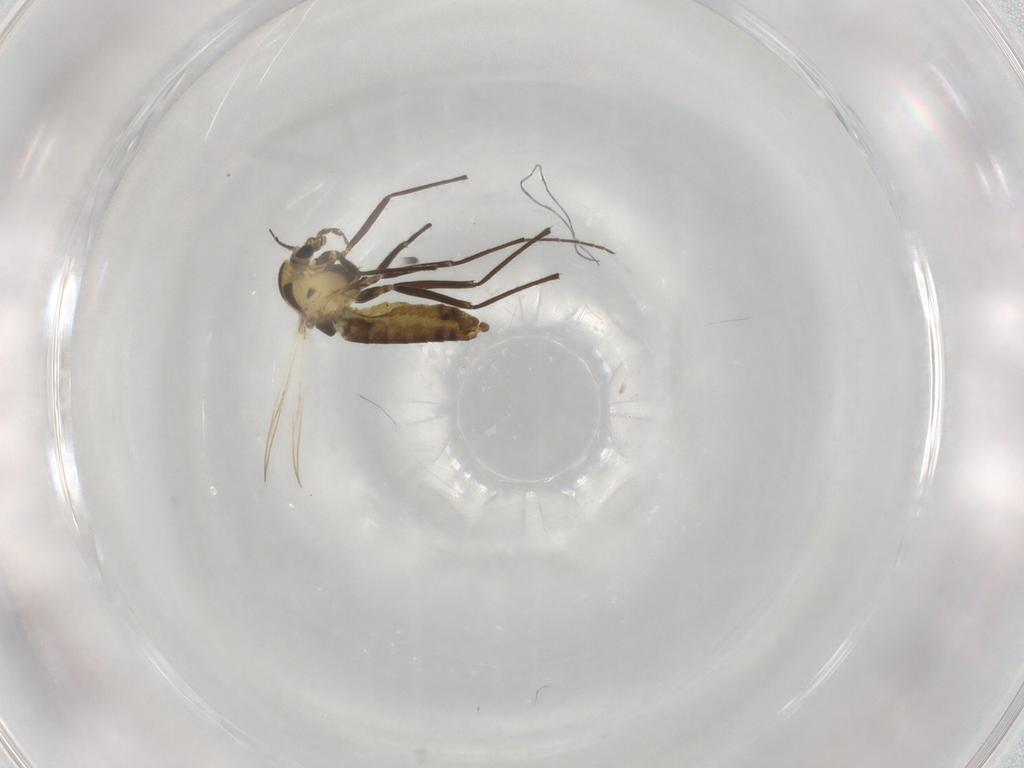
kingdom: Animalia
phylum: Arthropoda
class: Insecta
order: Diptera
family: Chironomidae
